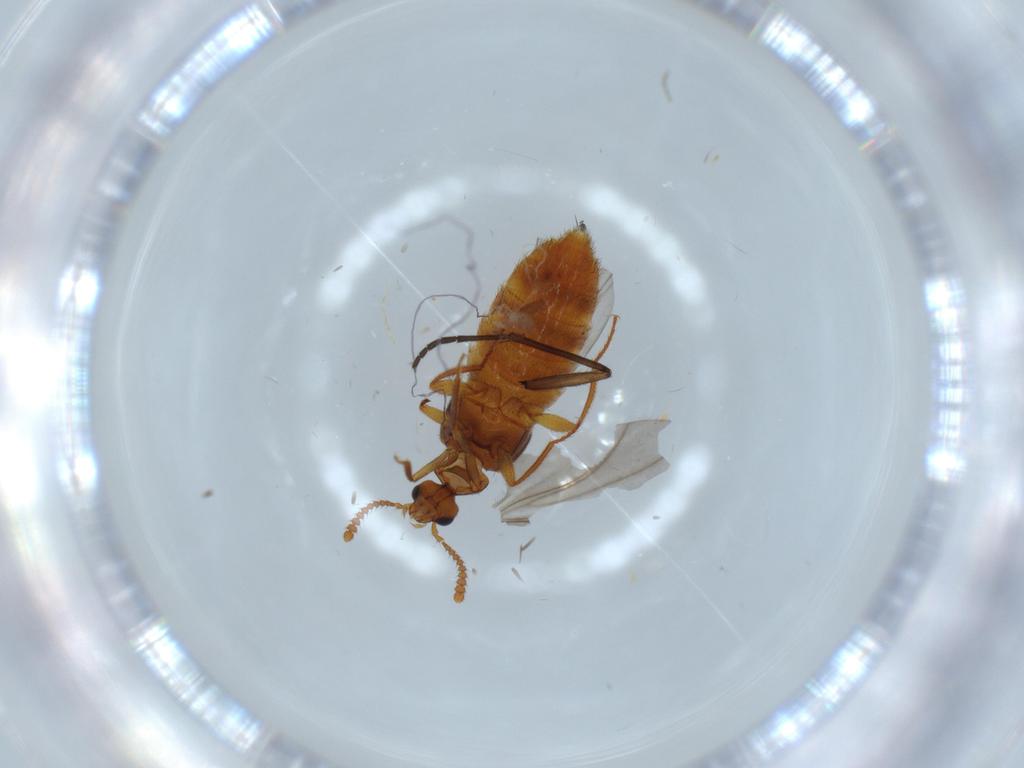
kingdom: Animalia
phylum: Arthropoda
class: Insecta
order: Coleoptera
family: Staphylinidae
